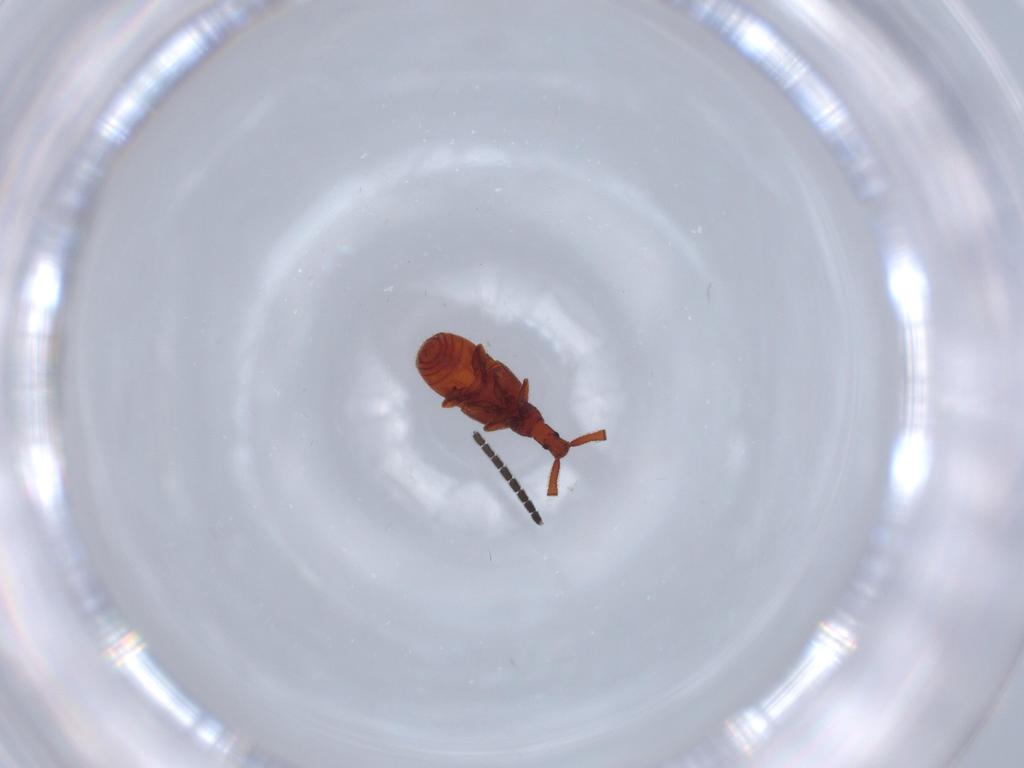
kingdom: Animalia
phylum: Arthropoda
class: Insecta
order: Coleoptera
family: Staphylinidae
